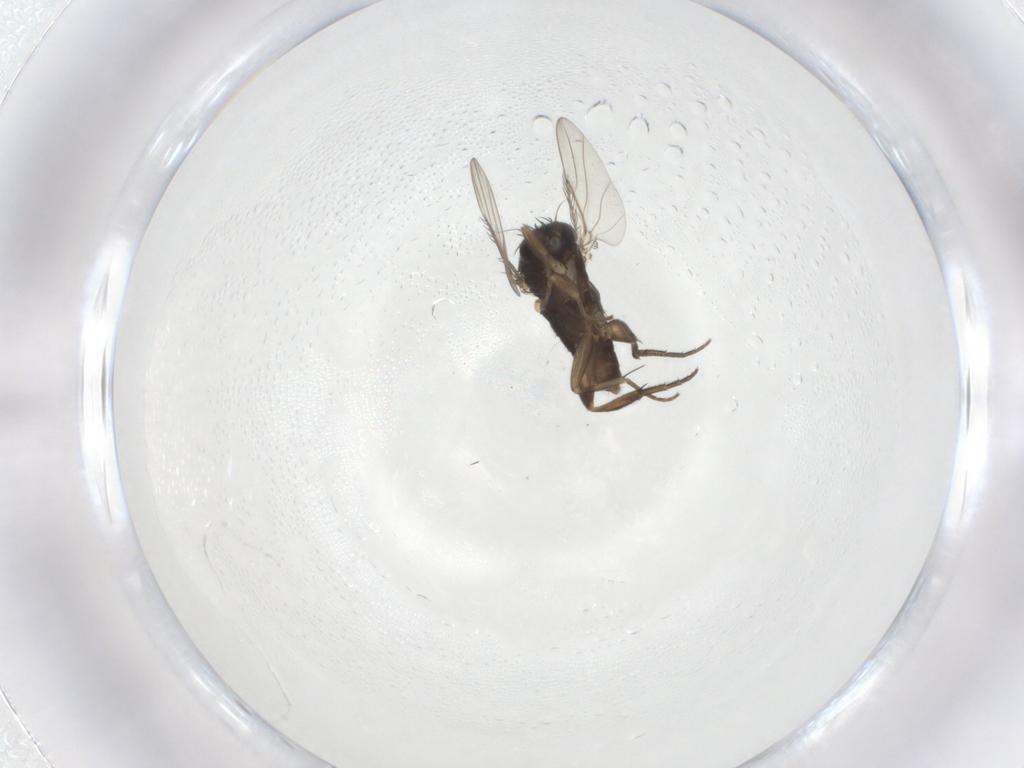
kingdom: Animalia
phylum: Arthropoda
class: Insecta
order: Diptera
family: Phoridae
